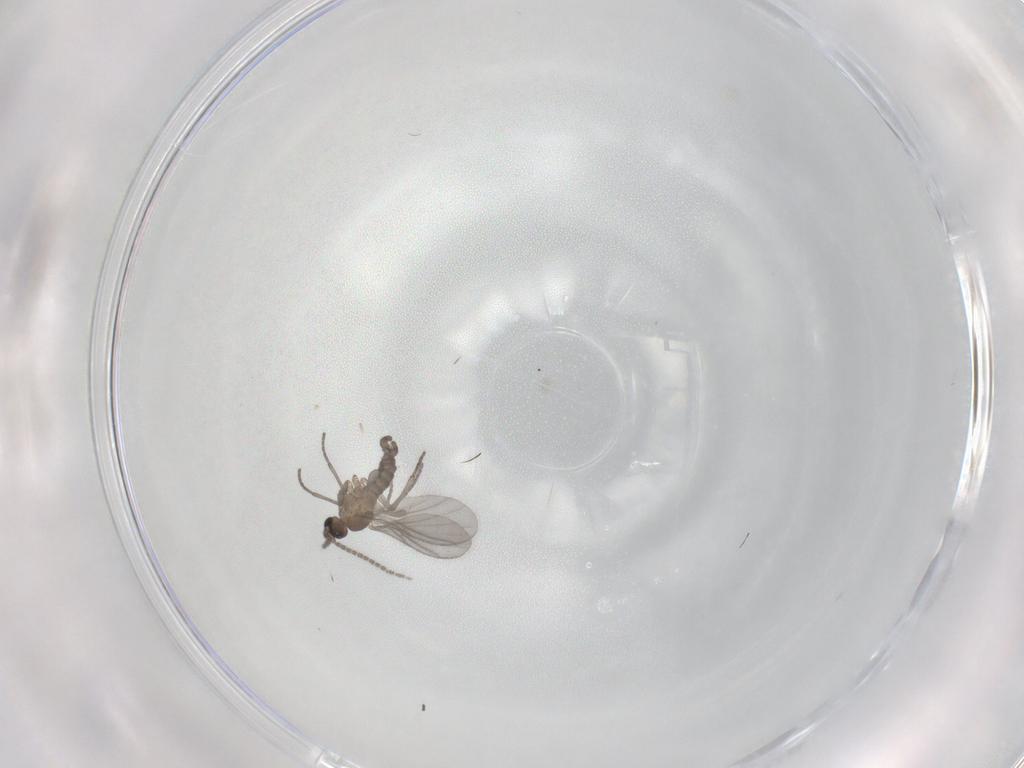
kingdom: Animalia
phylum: Arthropoda
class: Insecta
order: Diptera
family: Sciaridae
